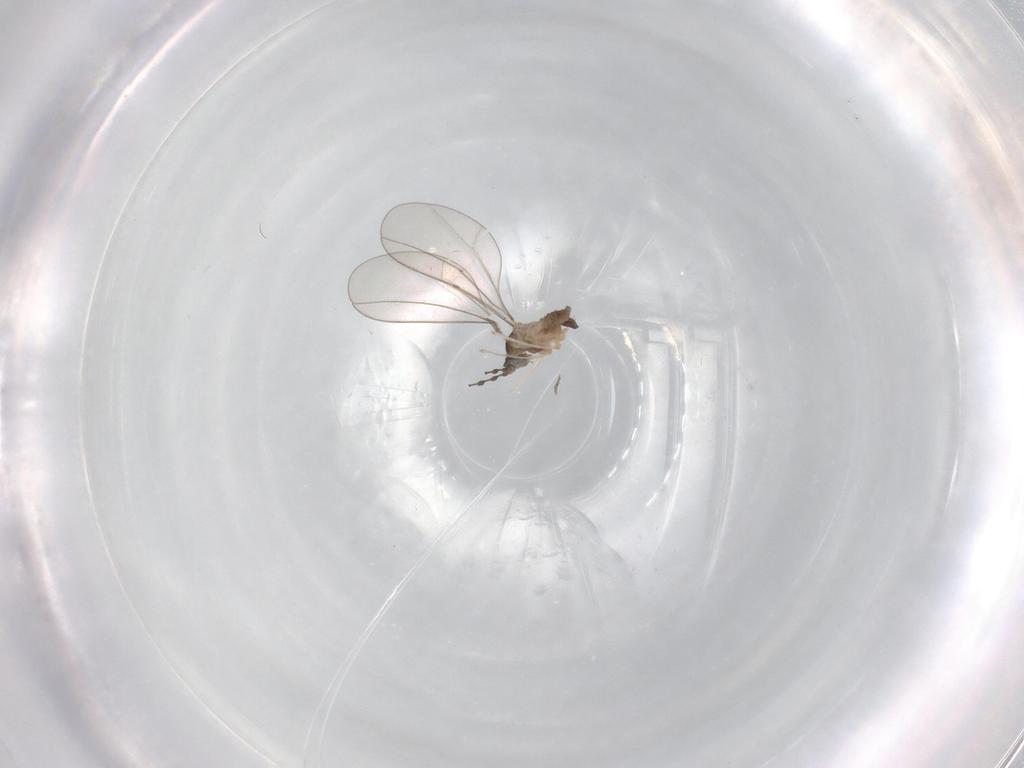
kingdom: Animalia
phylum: Arthropoda
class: Insecta
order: Diptera
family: Cecidomyiidae
